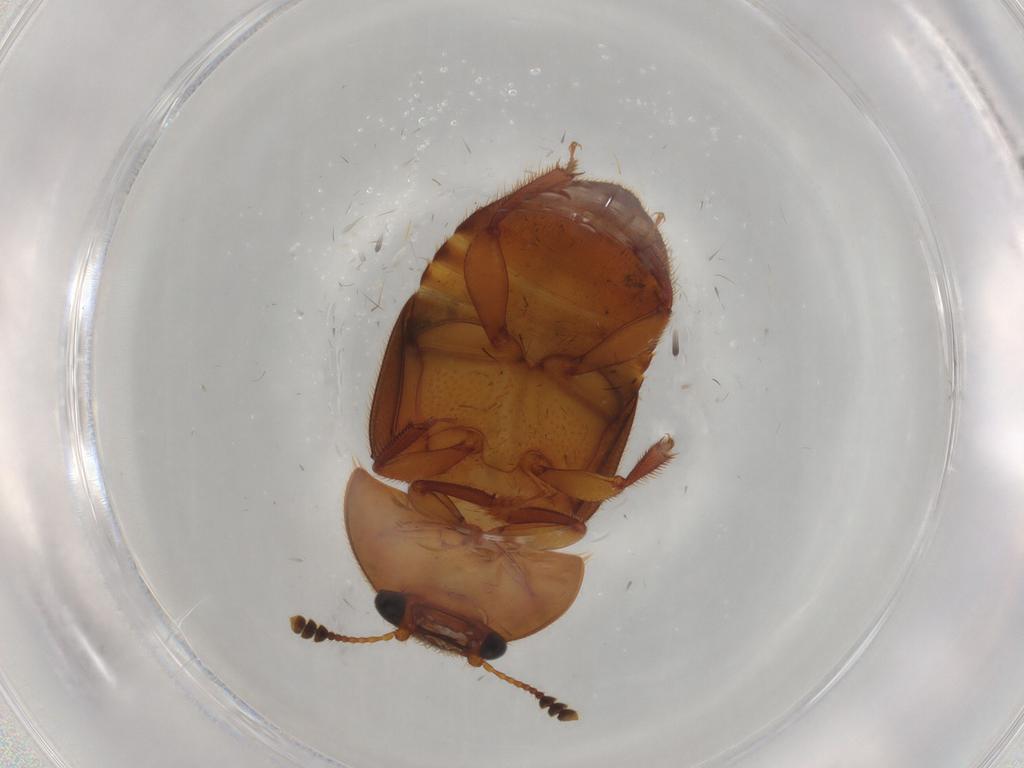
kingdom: Animalia
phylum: Arthropoda
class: Insecta
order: Coleoptera
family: Nitidulidae
